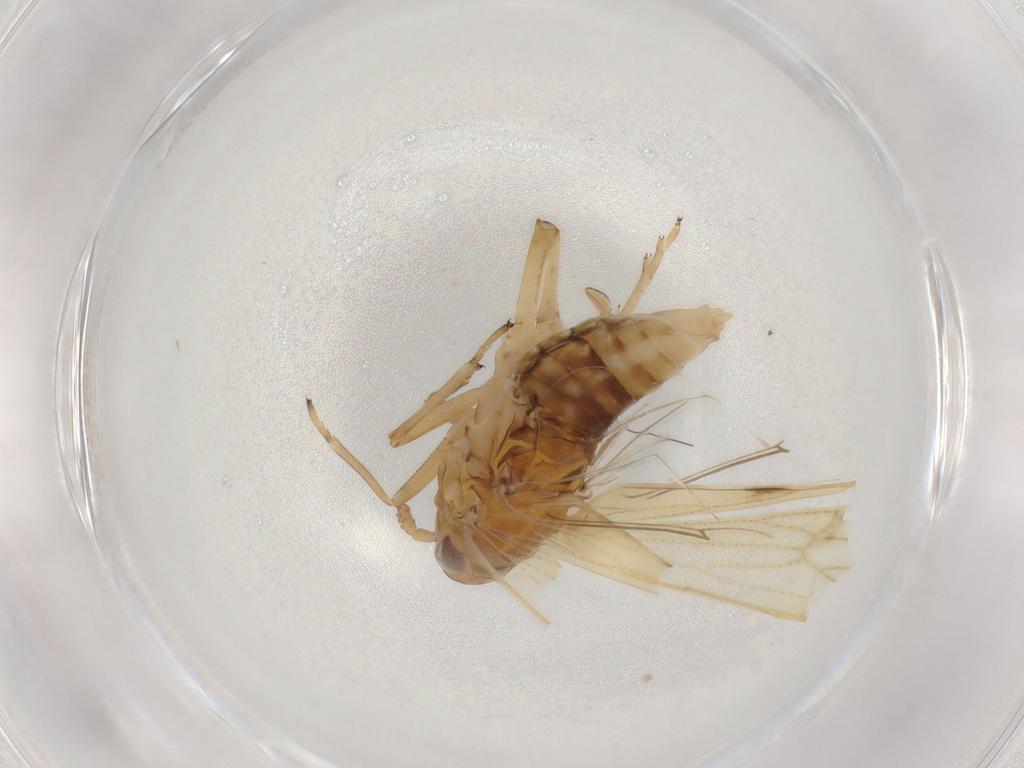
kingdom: Animalia
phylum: Arthropoda
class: Insecta
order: Hemiptera
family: Delphacidae
